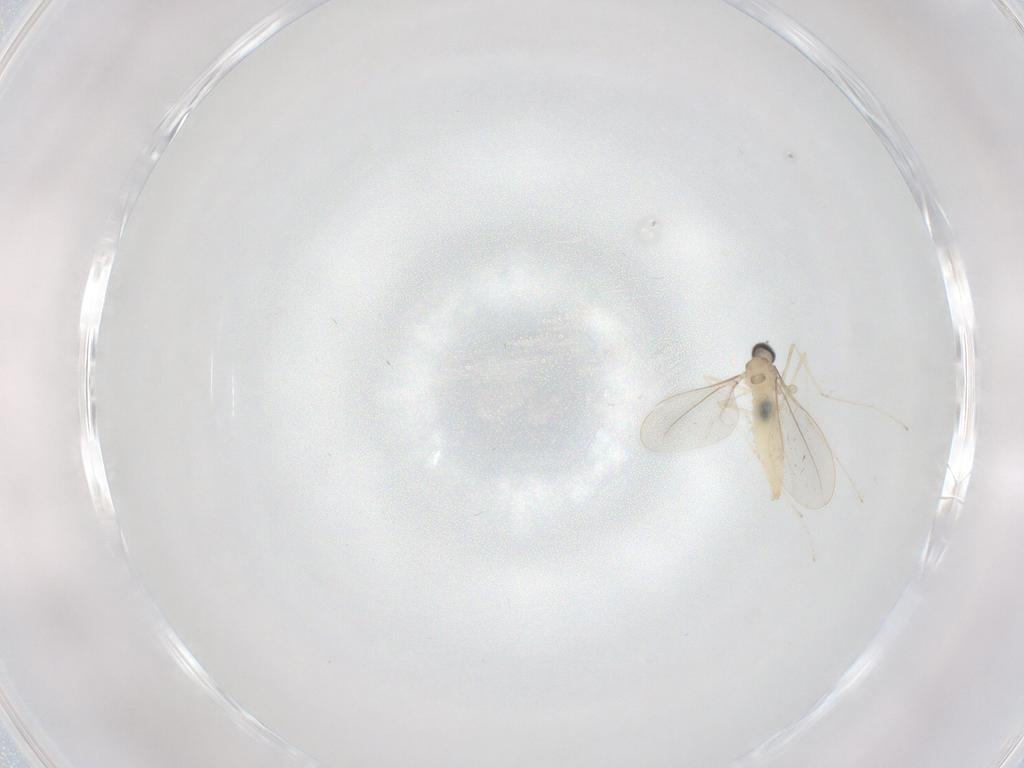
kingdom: Animalia
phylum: Arthropoda
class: Insecta
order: Diptera
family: Cecidomyiidae
